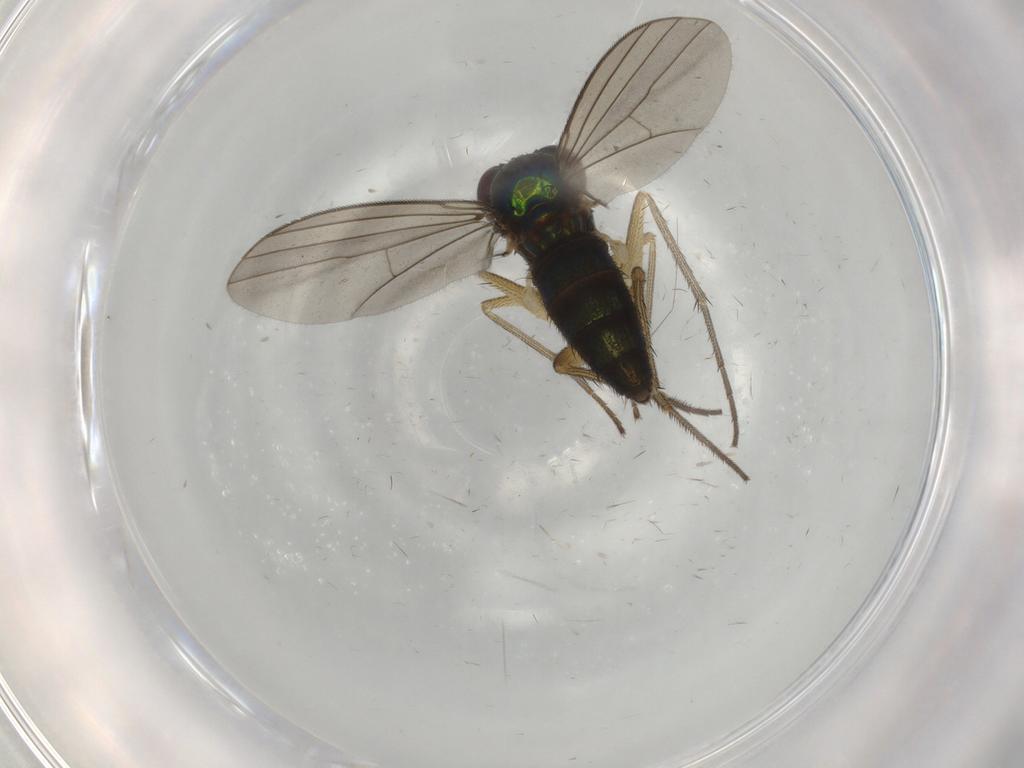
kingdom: Animalia
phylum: Arthropoda
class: Insecta
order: Diptera
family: Dolichopodidae
